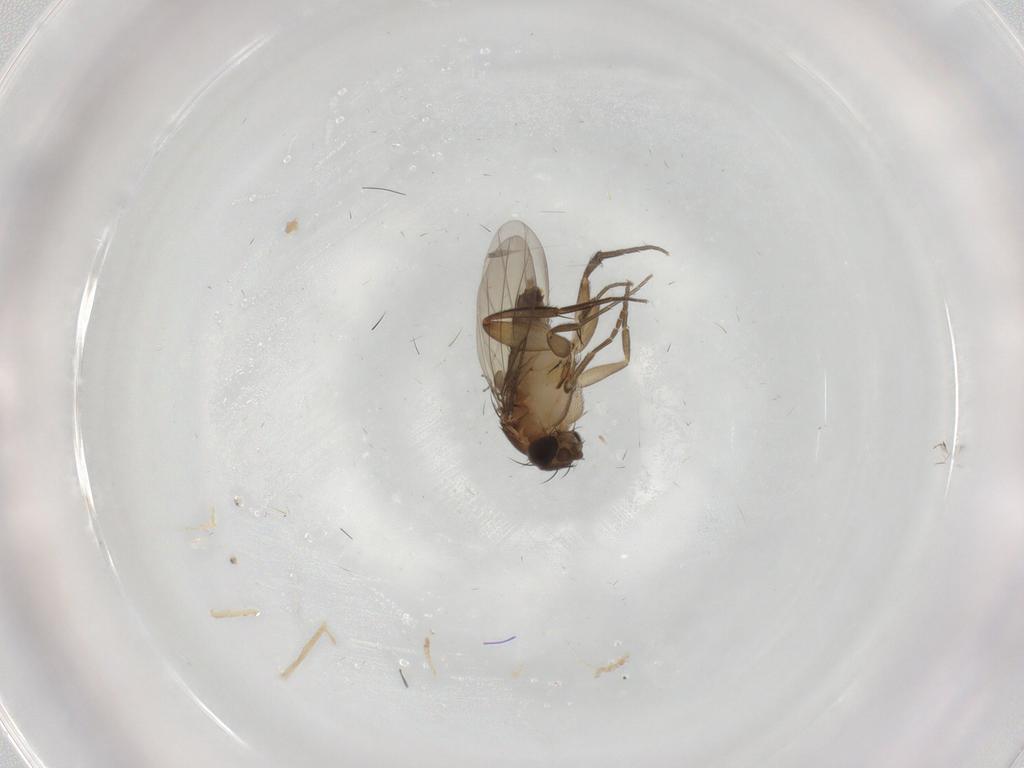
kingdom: Animalia
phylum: Arthropoda
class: Insecta
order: Diptera
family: Phoridae
